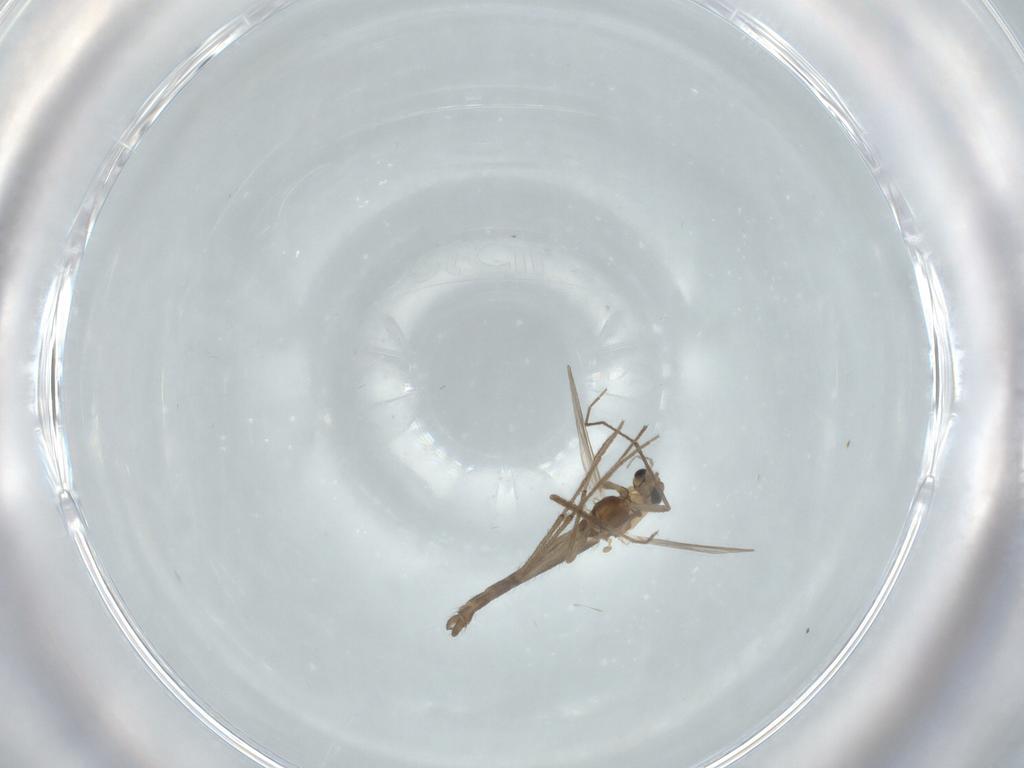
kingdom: Animalia
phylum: Arthropoda
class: Insecta
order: Diptera
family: Chironomidae
